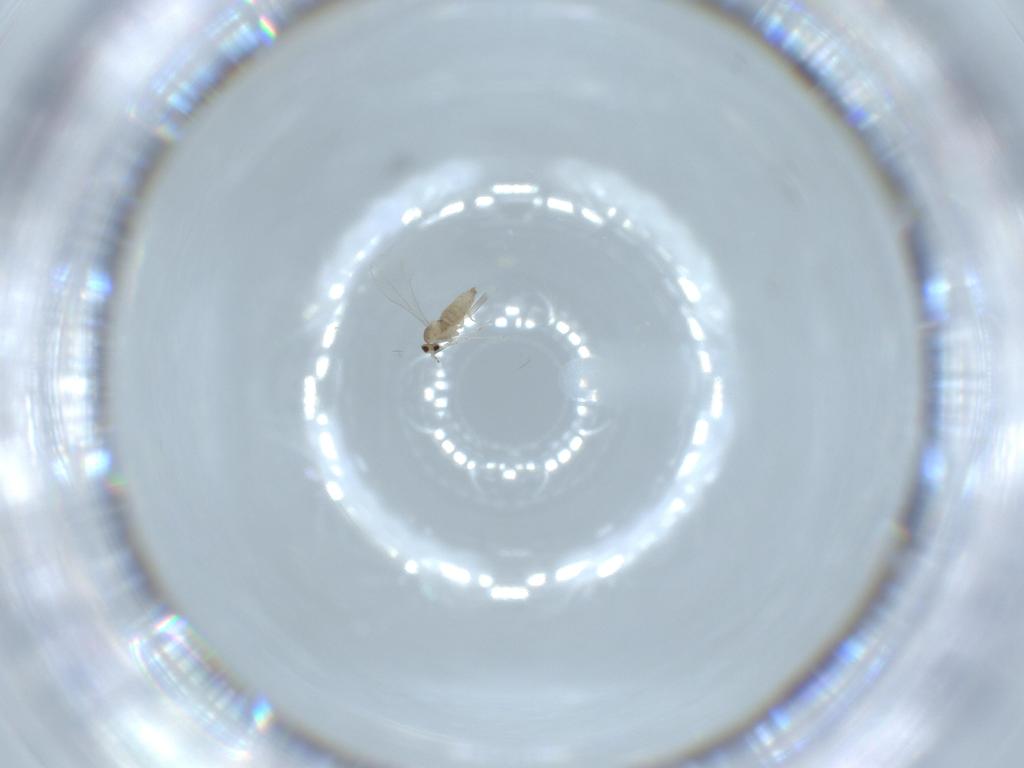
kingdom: Animalia
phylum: Arthropoda
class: Insecta
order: Diptera
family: Cecidomyiidae
